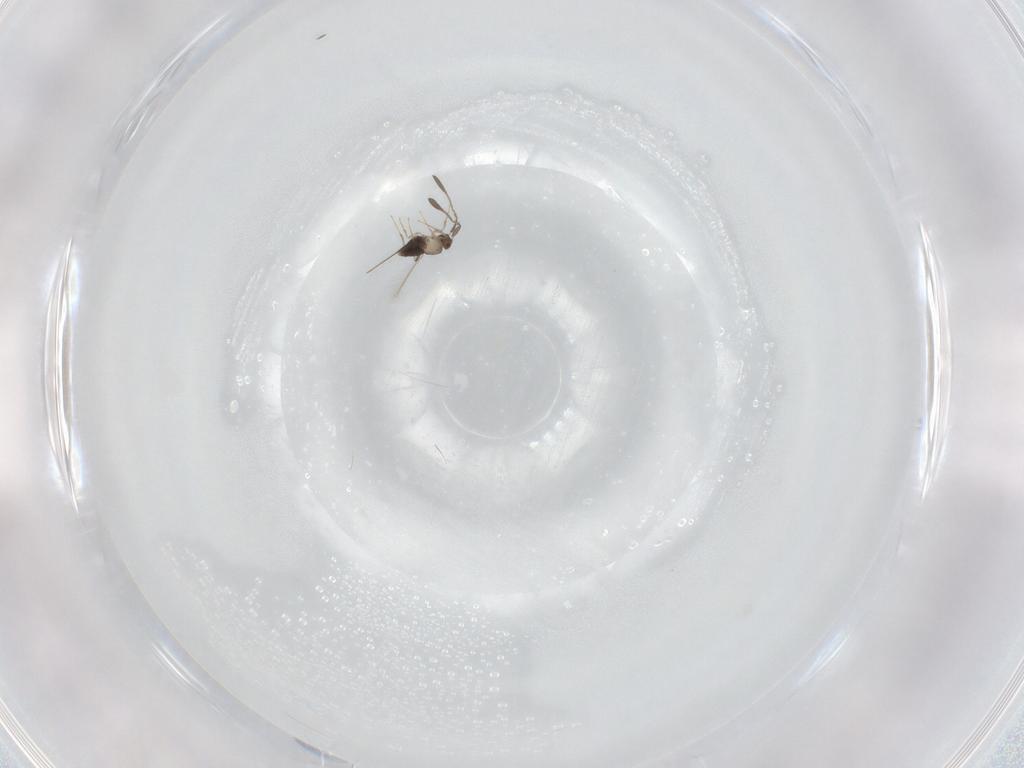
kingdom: Animalia
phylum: Arthropoda
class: Insecta
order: Hymenoptera
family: Mymaridae
